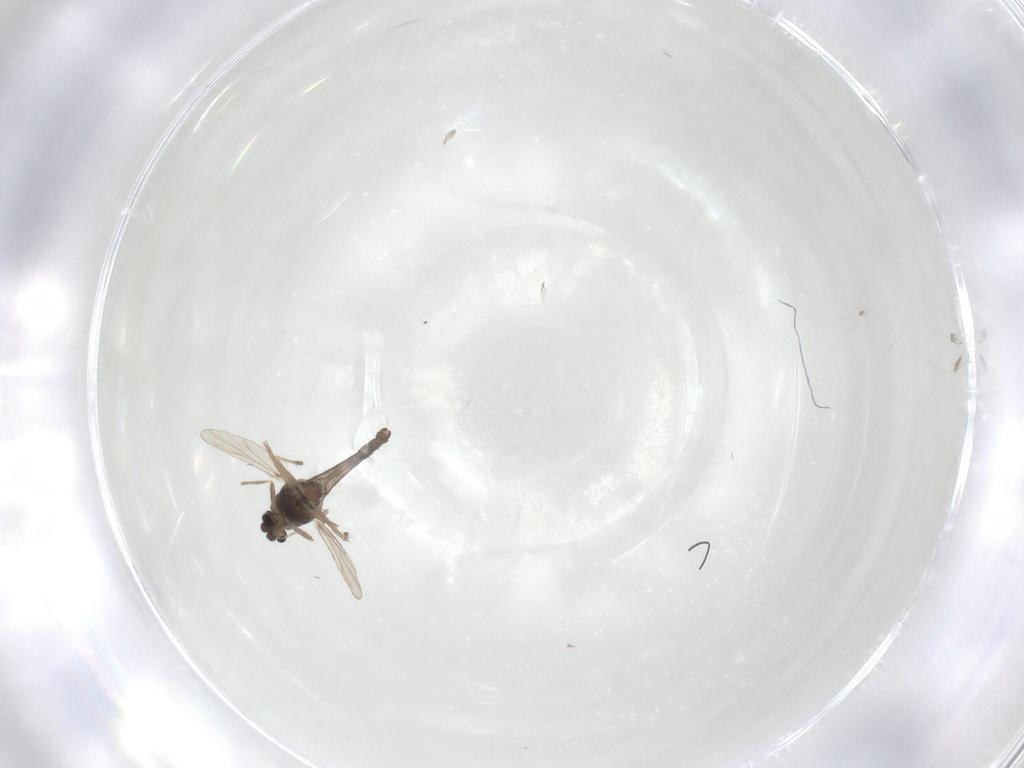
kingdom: Animalia
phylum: Arthropoda
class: Insecta
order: Diptera
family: Chironomidae
